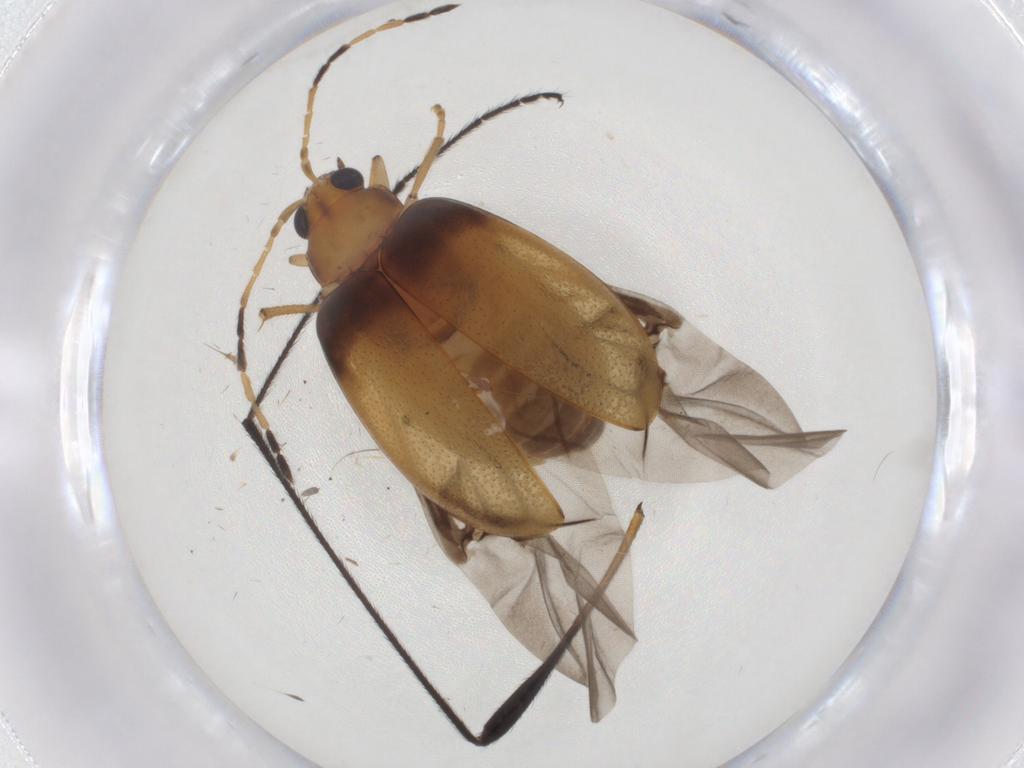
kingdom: Animalia
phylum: Arthropoda
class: Insecta
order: Coleoptera
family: Chrysomelidae
